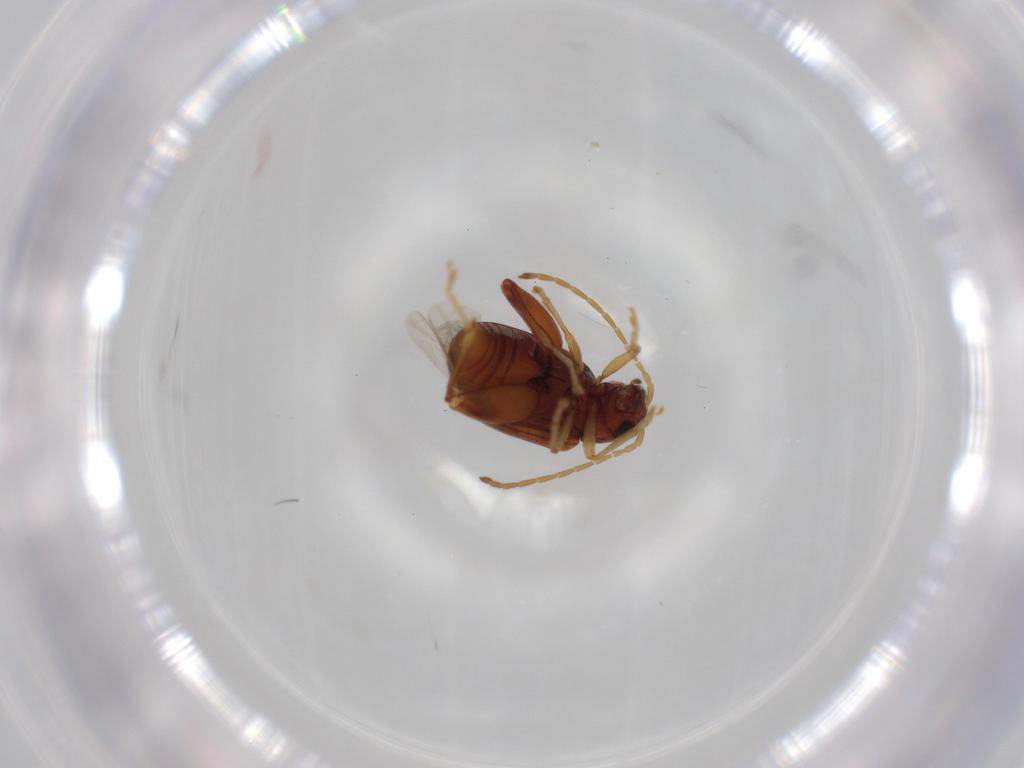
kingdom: Animalia
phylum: Arthropoda
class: Insecta
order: Coleoptera
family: Chrysomelidae
